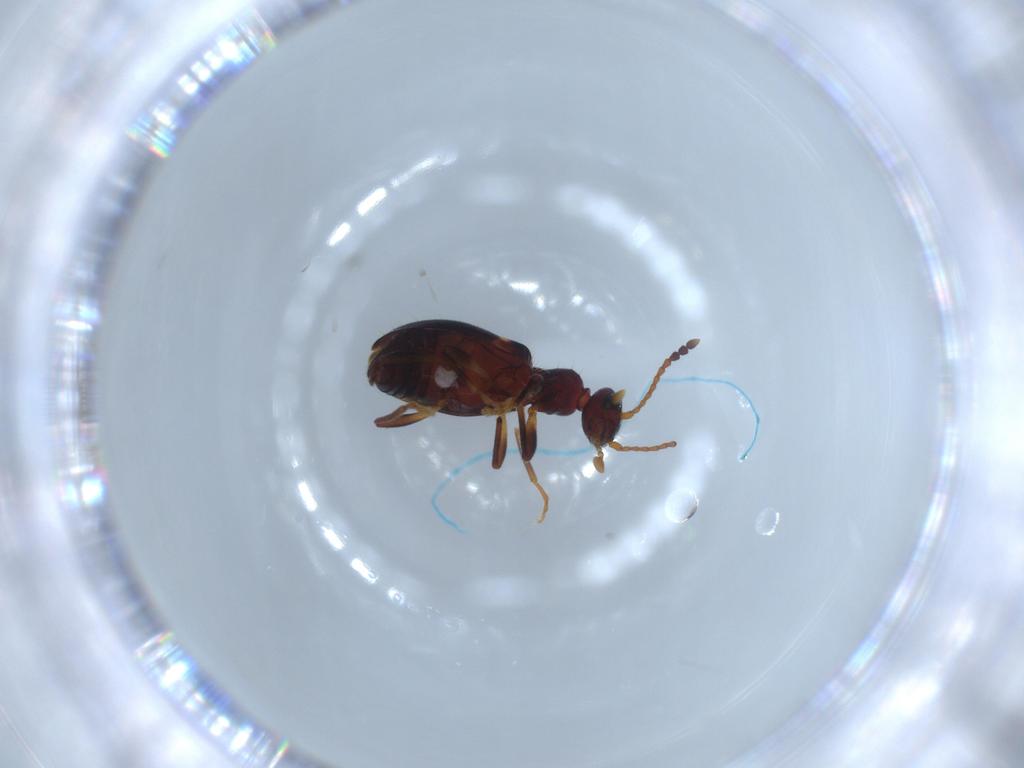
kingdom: Animalia
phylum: Arthropoda
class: Insecta
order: Coleoptera
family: Anthicidae
